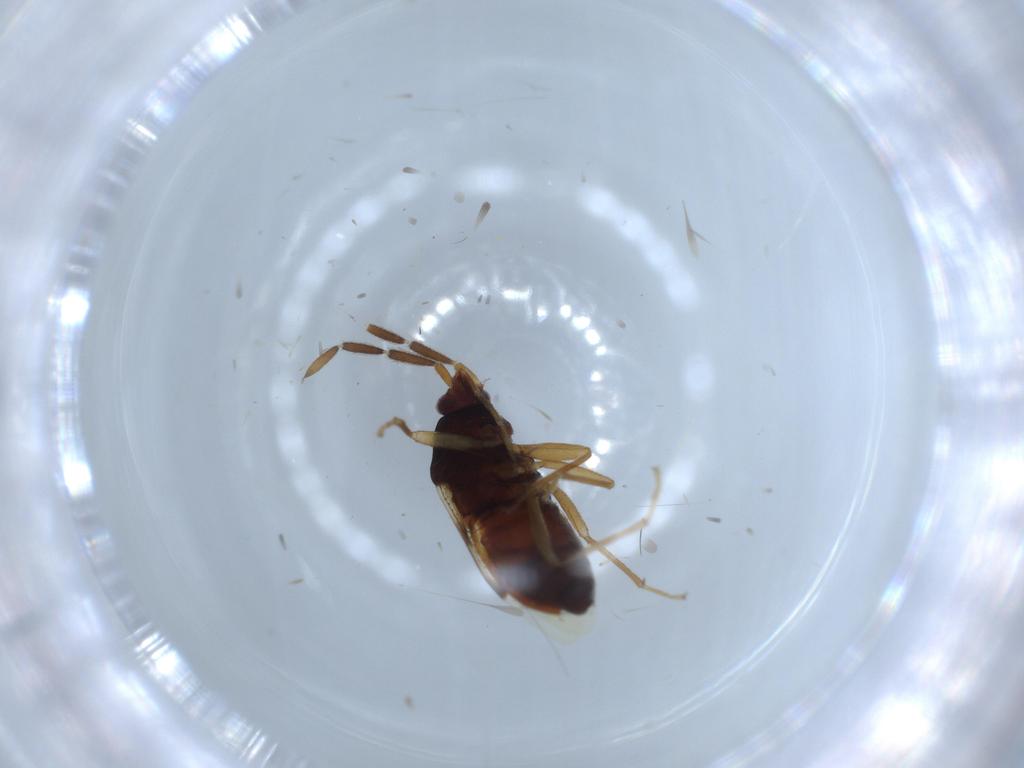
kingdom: Animalia
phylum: Arthropoda
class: Insecta
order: Hemiptera
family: Rhyparochromidae
